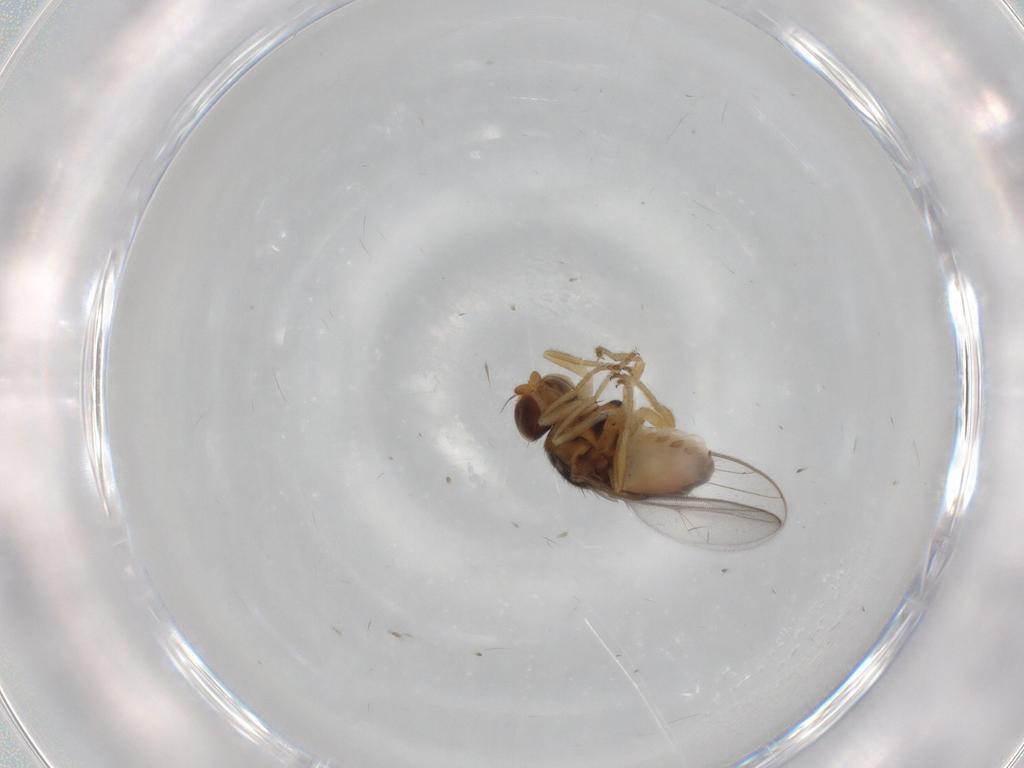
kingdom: Animalia
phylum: Arthropoda
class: Insecta
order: Diptera
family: Chloropidae
